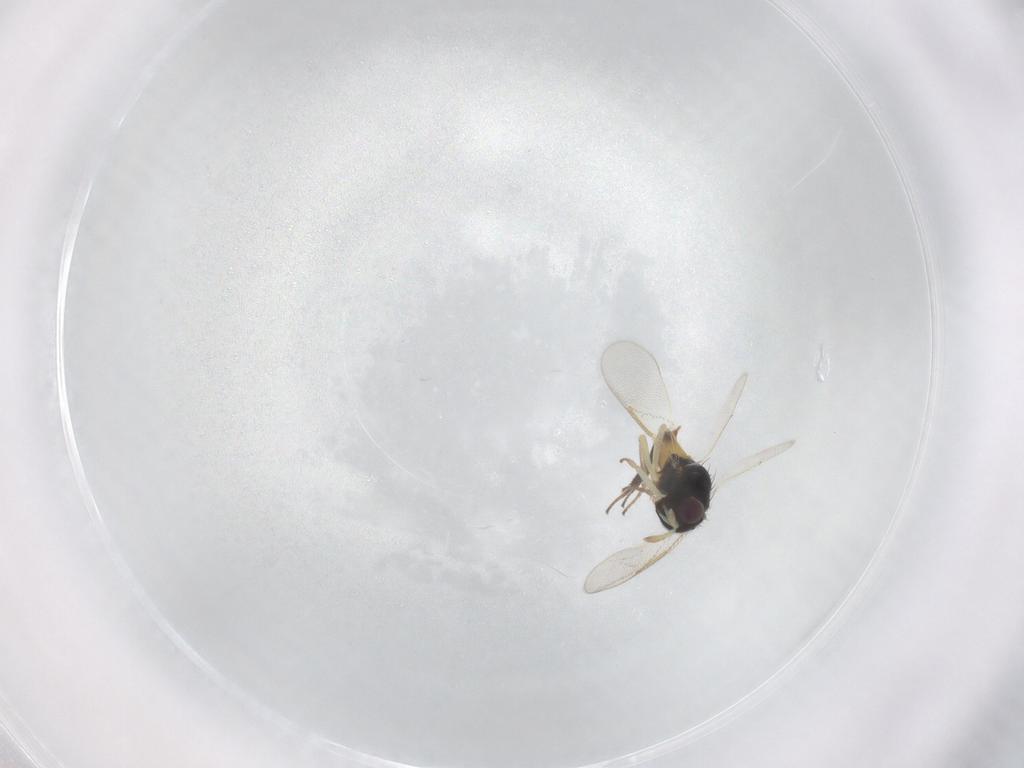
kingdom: Animalia
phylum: Arthropoda
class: Insecta
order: Hymenoptera
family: Aphelinidae
